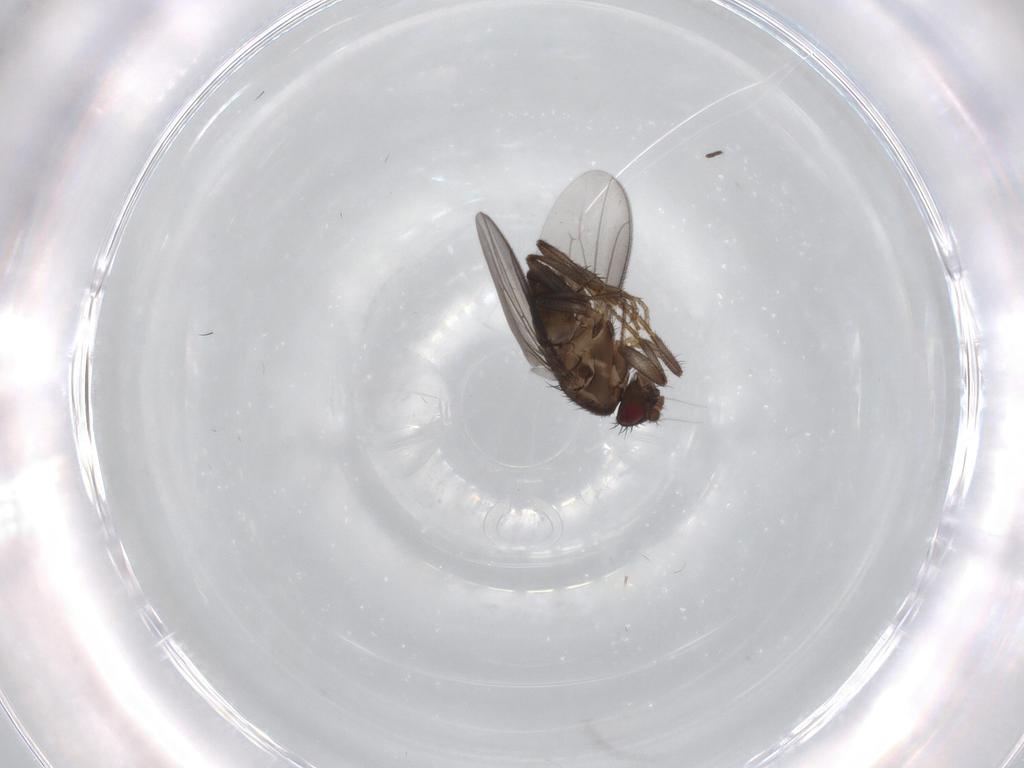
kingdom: Animalia
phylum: Arthropoda
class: Insecta
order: Diptera
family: Sphaeroceridae
